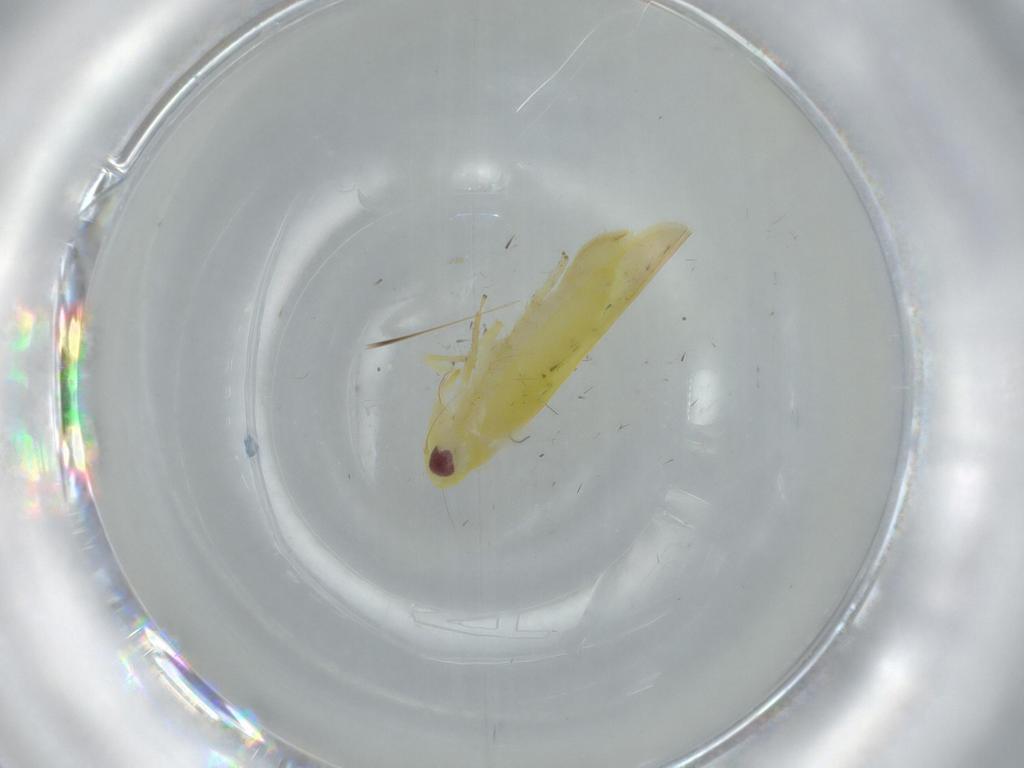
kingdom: Animalia
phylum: Arthropoda
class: Insecta
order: Hemiptera
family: Cicadellidae
